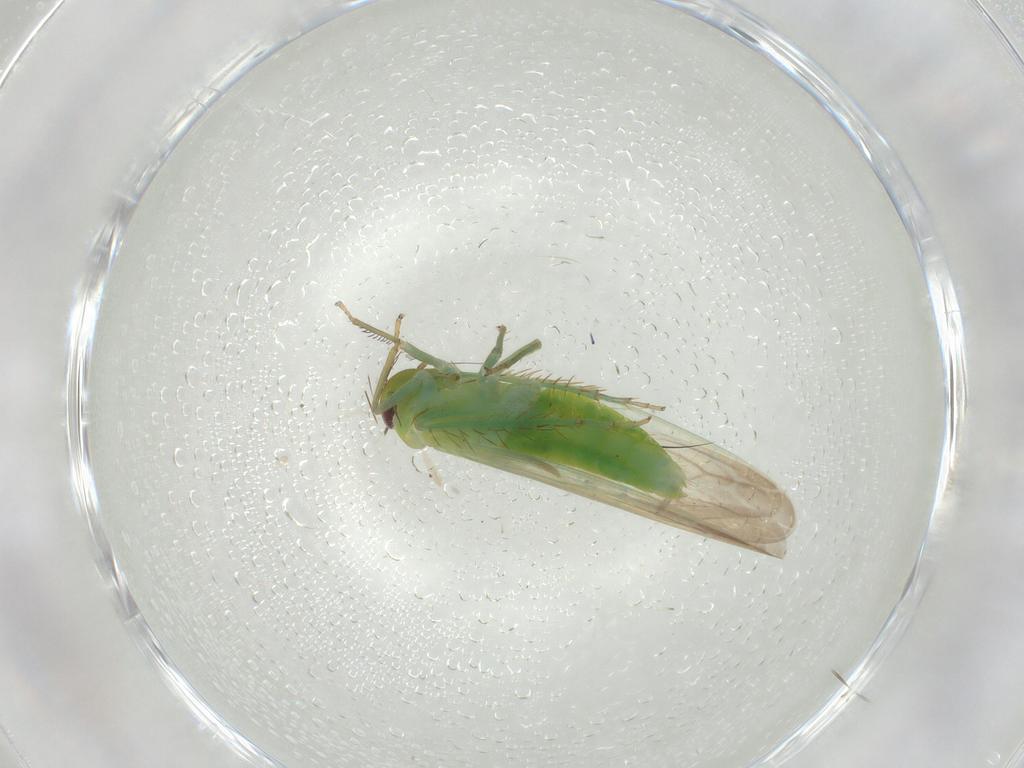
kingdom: Animalia
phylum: Arthropoda
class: Insecta
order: Hemiptera
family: Cicadellidae
